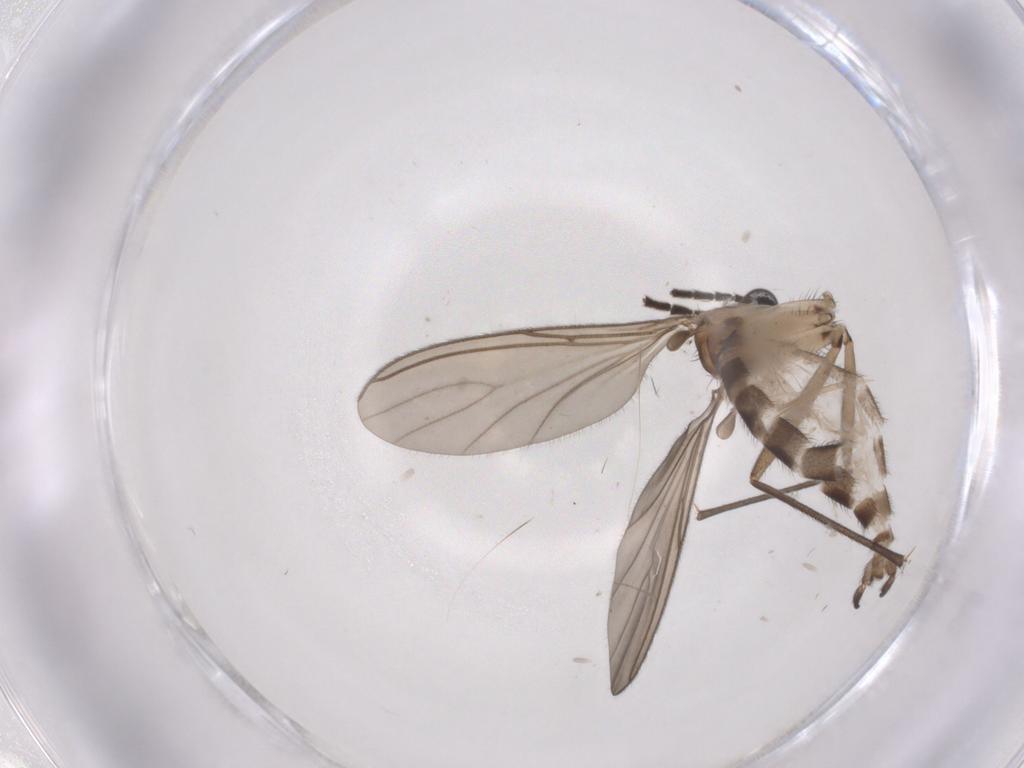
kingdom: Animalia
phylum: Arthropoda
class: Insecta
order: Diptera
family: Sciaridae
